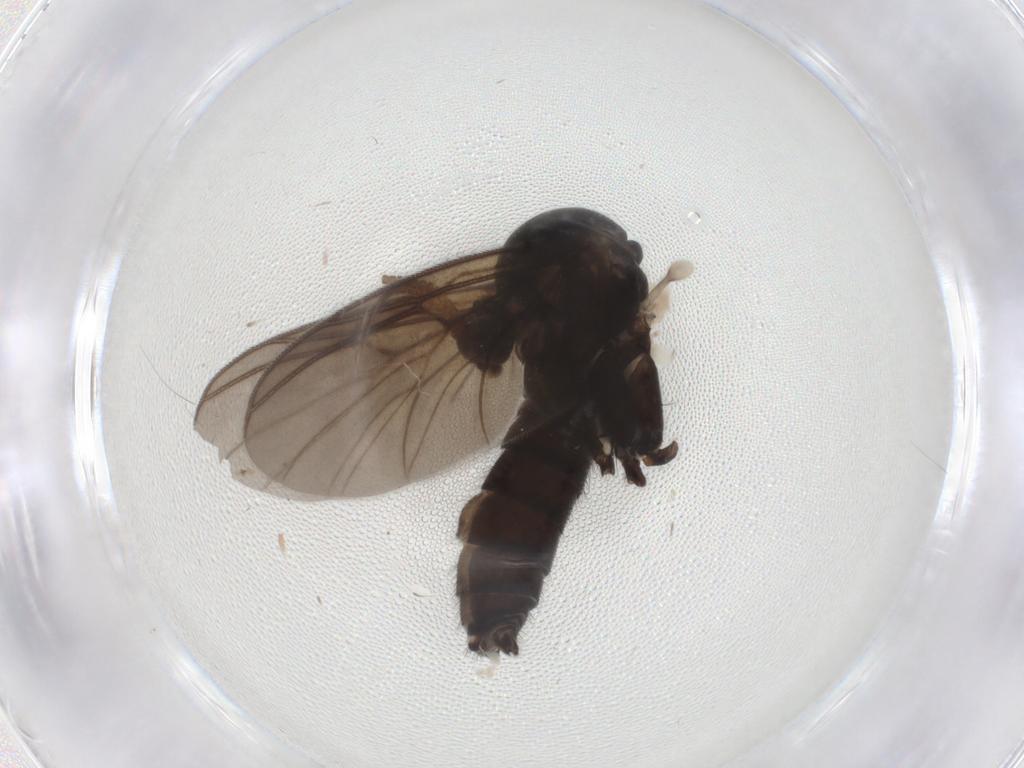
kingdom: Animalia
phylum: Arthropoda
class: Insecta
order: Diptera
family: Mycetophilidae
